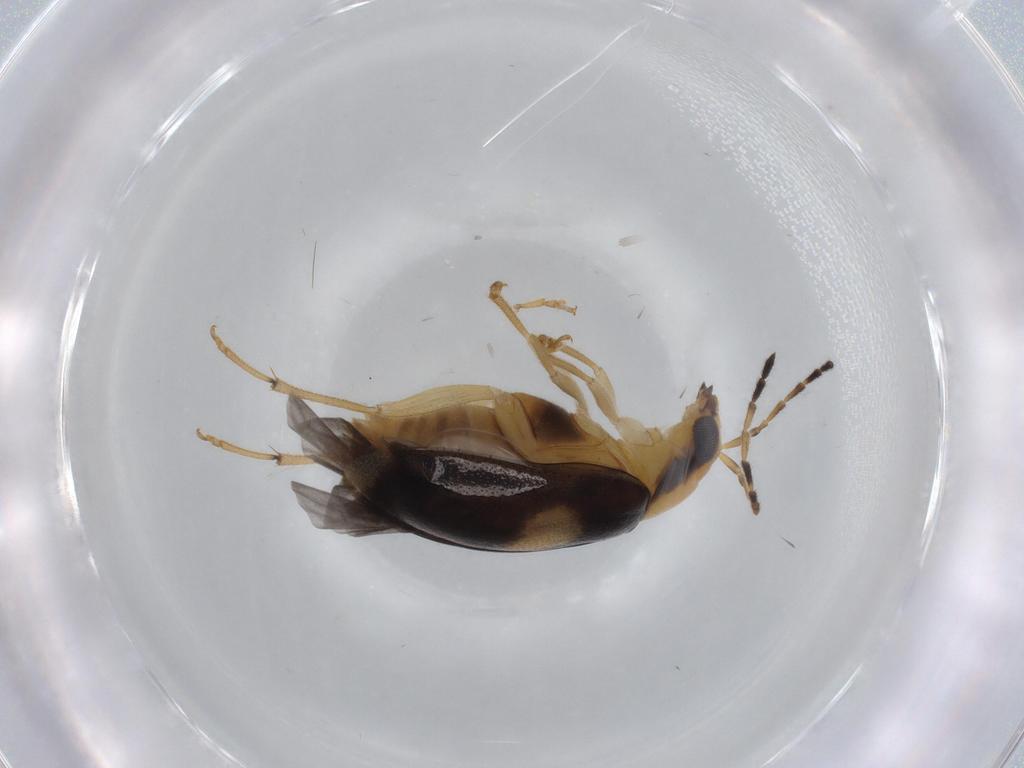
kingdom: Animalia
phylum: Arthropoda
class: Insecta
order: Coleoptera
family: Chrysomelidae
